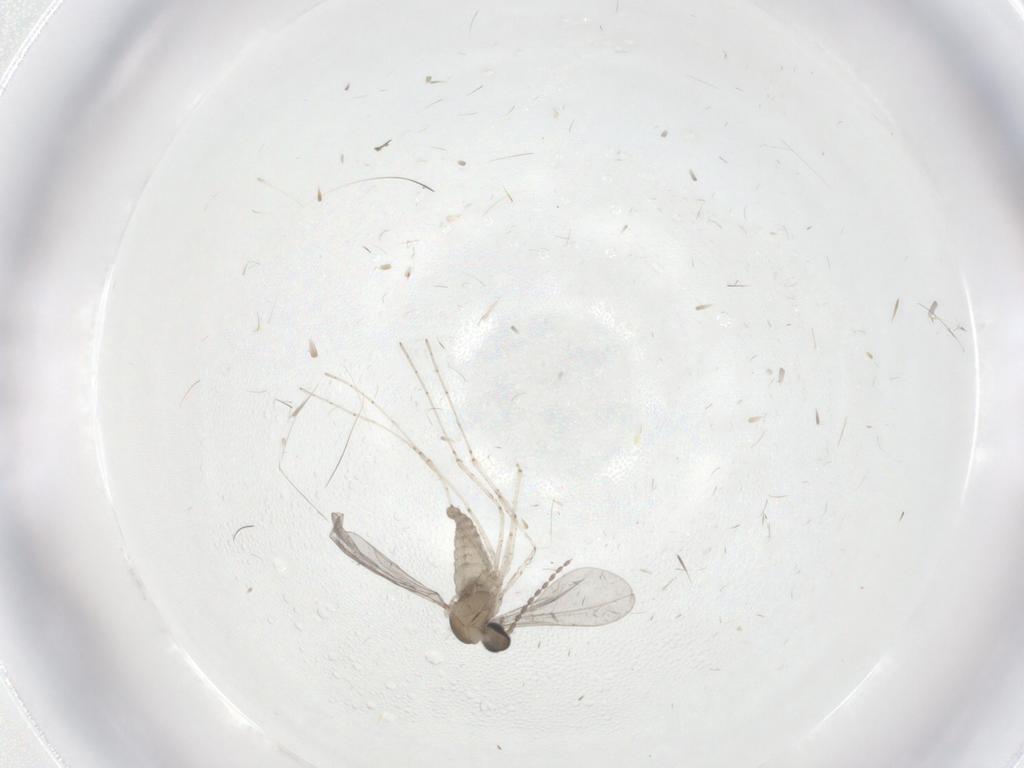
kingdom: Animalia
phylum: Arthropoda
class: Insecta
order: Diptera
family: Cecidomyiidae
